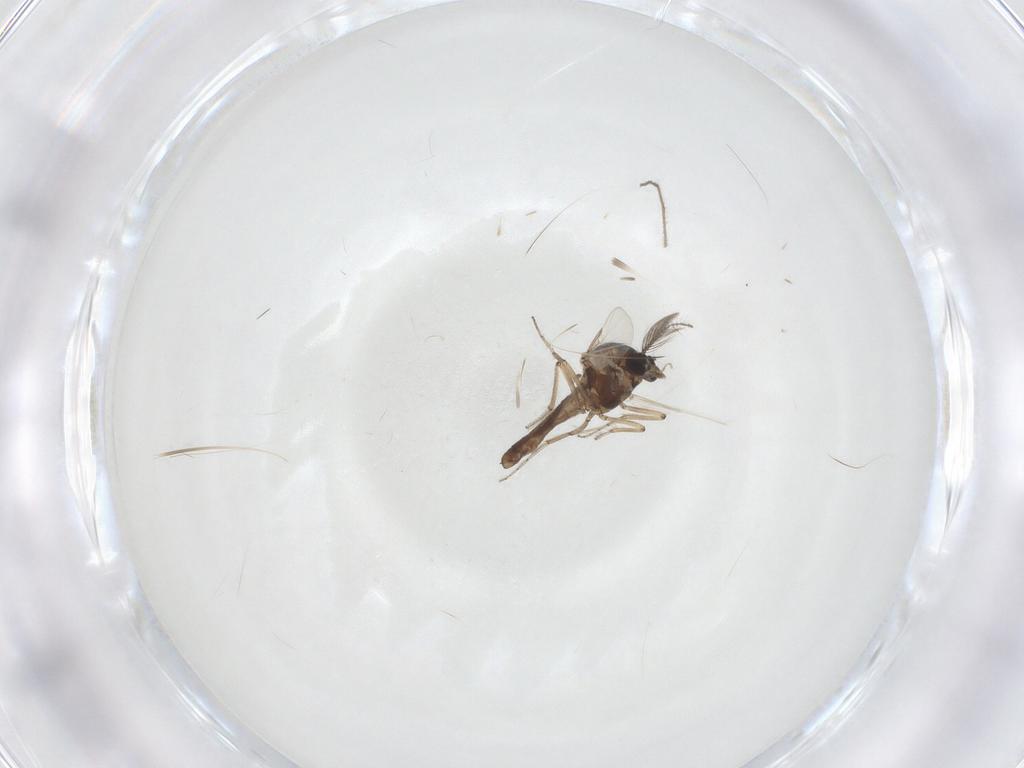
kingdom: Animalia
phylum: Arthropoda
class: Insecta
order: Diptera
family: Ceratopogonidae
